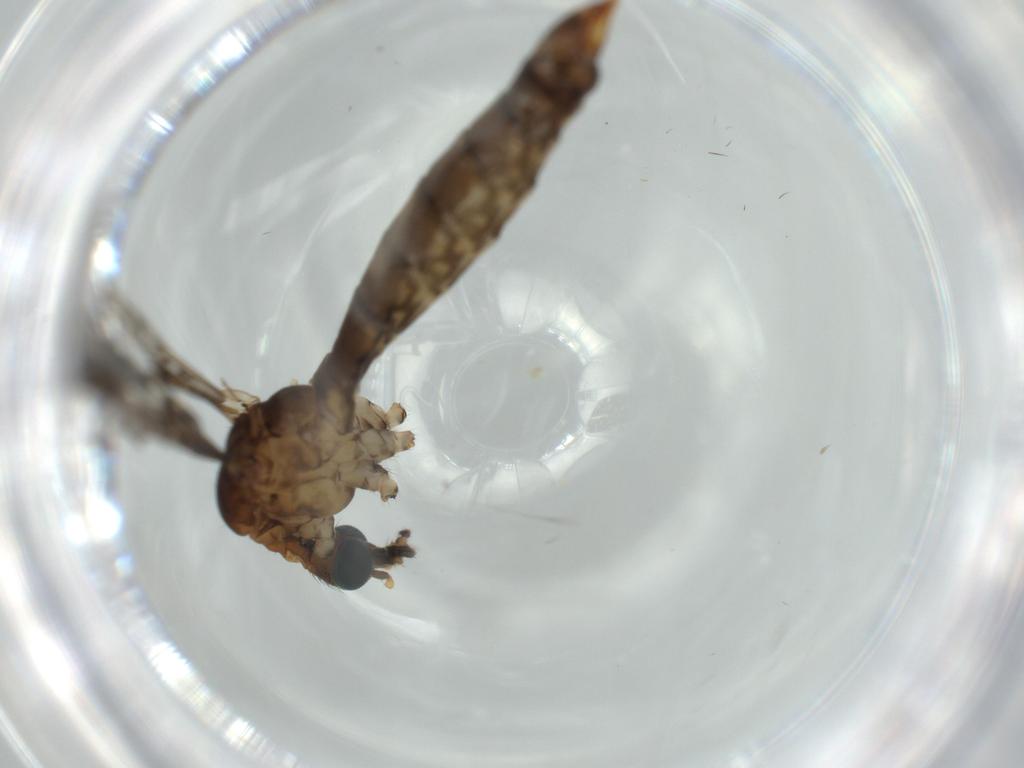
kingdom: Animalia
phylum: Arthropoda
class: Insecta
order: Diptera
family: Drosophilidae
